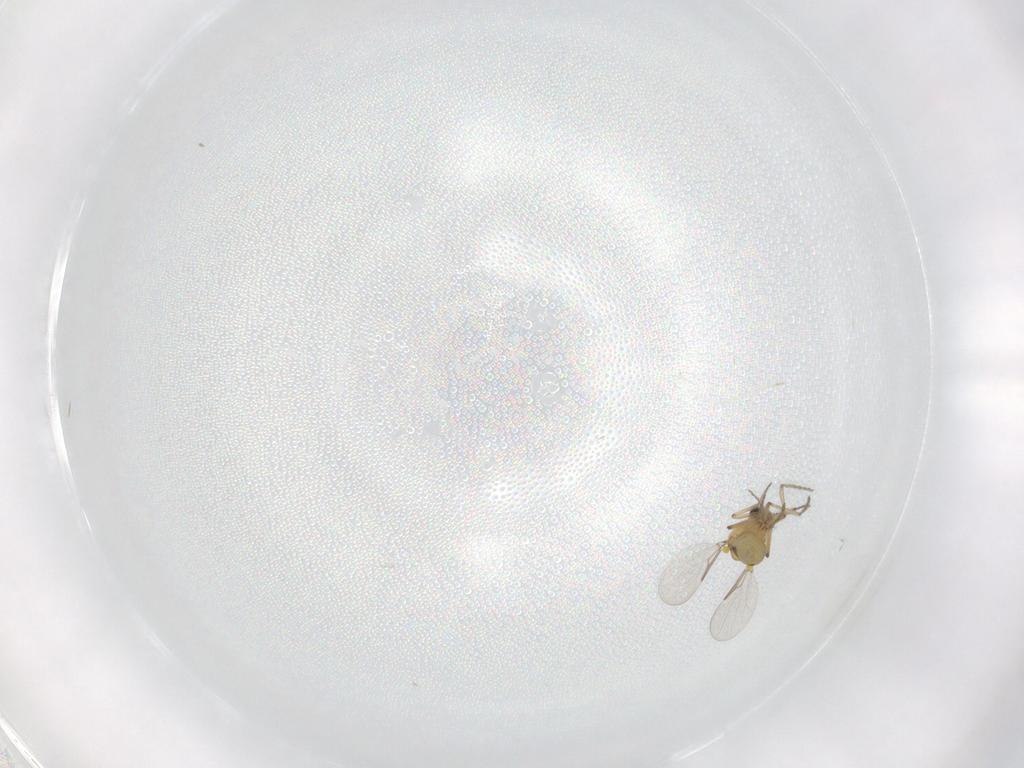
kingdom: Animalia
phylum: Arthropoda
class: Insecta
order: Diptera
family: Ceratopogonidae
